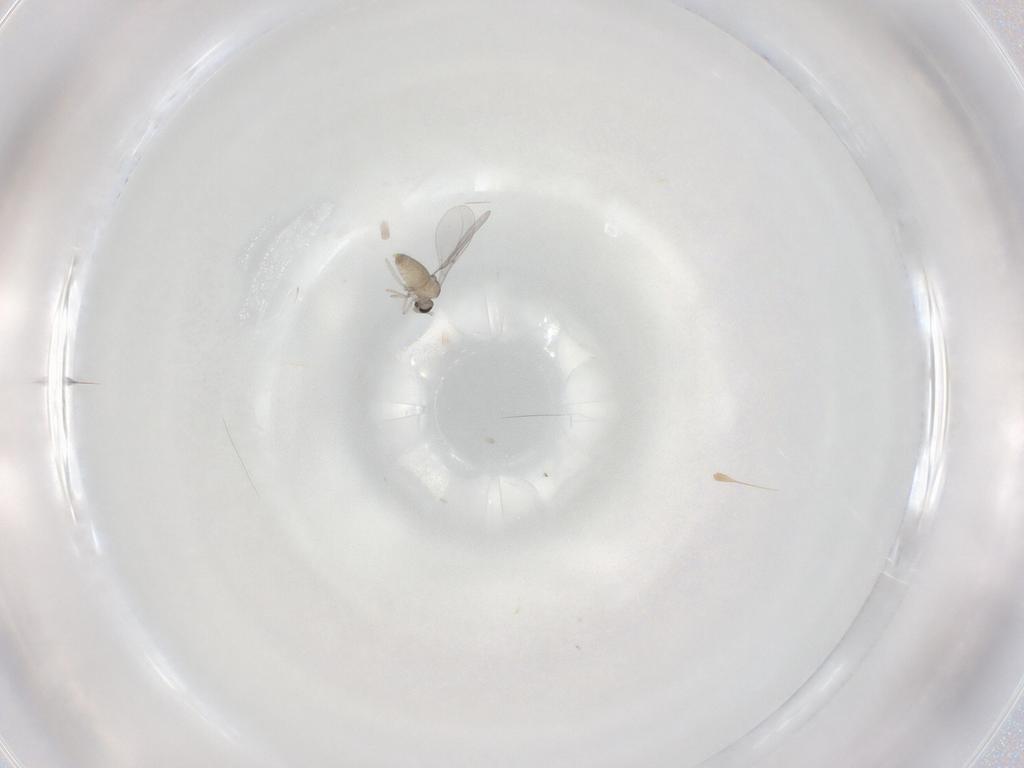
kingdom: Animalia
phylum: Arthropoda
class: Insecta
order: Diptera
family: Cecidomyiidae
